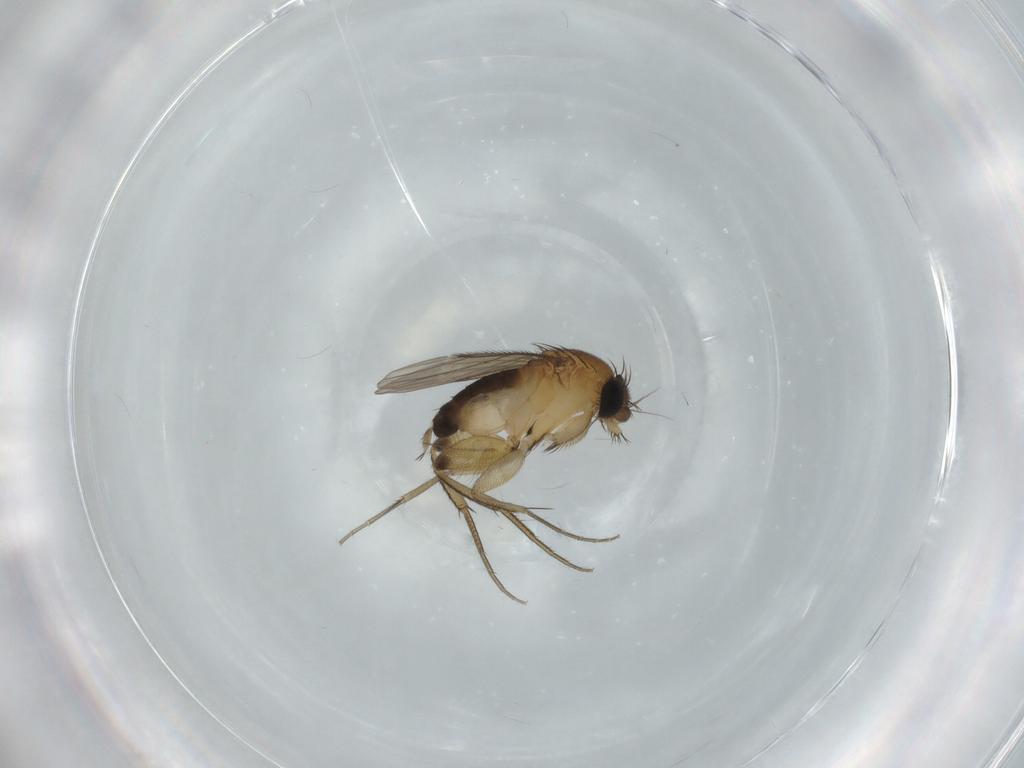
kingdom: Animalia
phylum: Arthropoda
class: Insecta
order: Diptera
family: Phoridae
